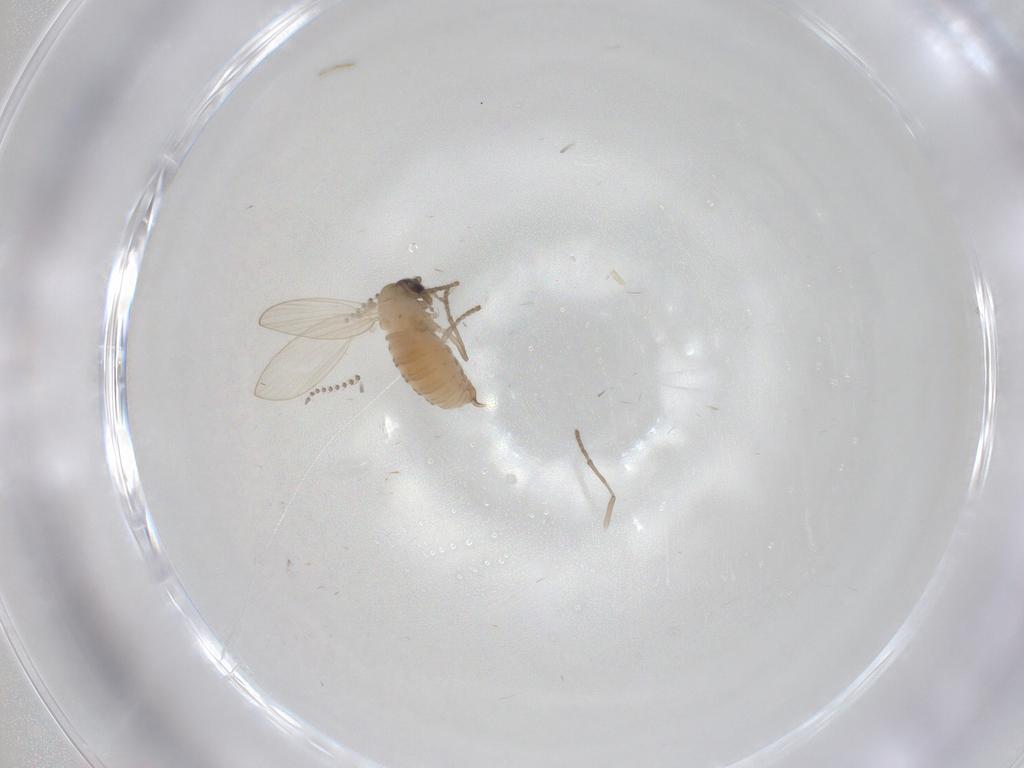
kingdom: Animalia
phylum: Arthropoda
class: Insecta
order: Diptera
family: Psychodidae
